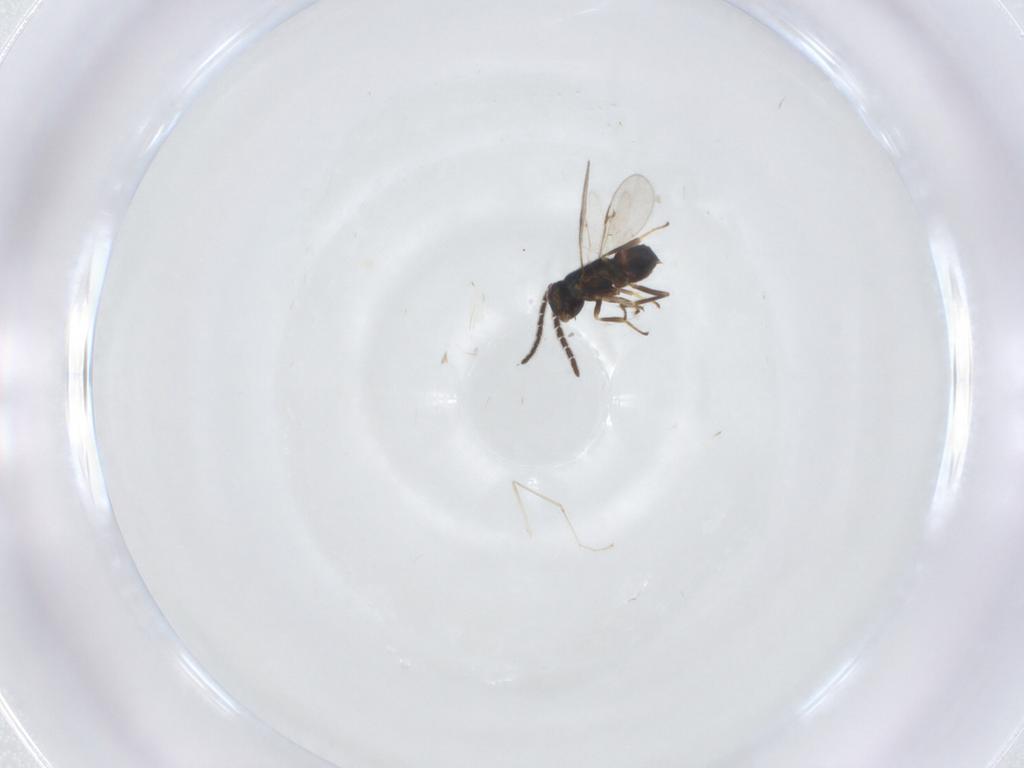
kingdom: Animalia
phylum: Arthropoda
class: Insecta
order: Hymenoptera
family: Encyrtidae
